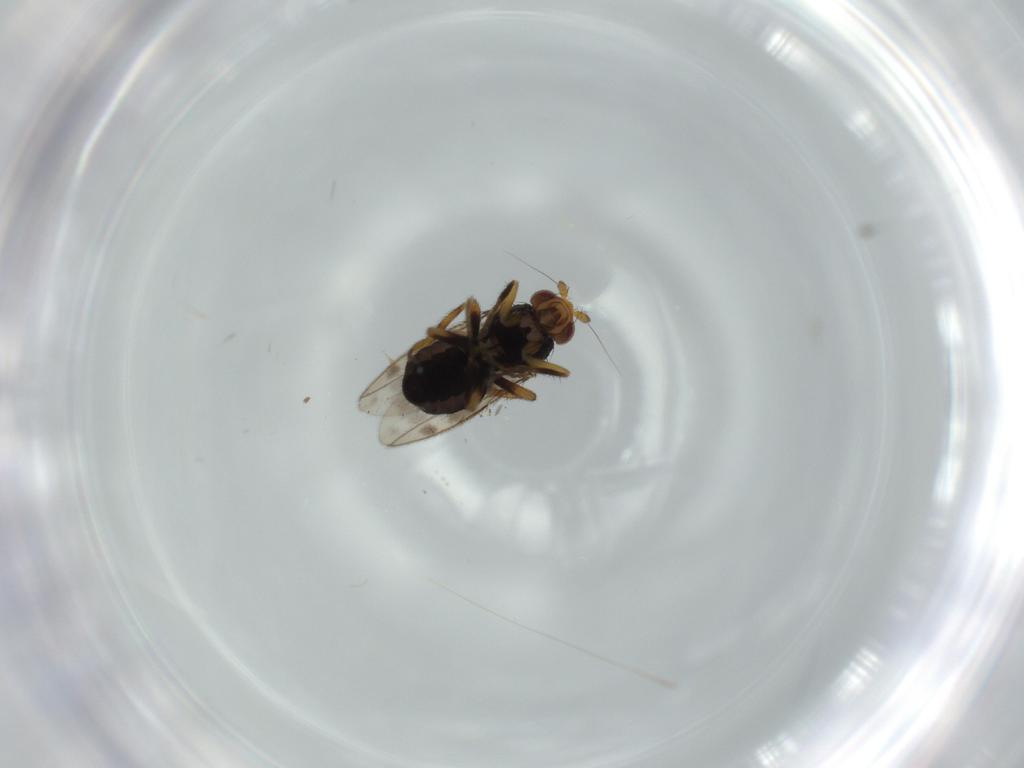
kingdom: Animalia
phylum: Arthropoda
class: Insecta
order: Diptera
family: Sphaeroceridae
